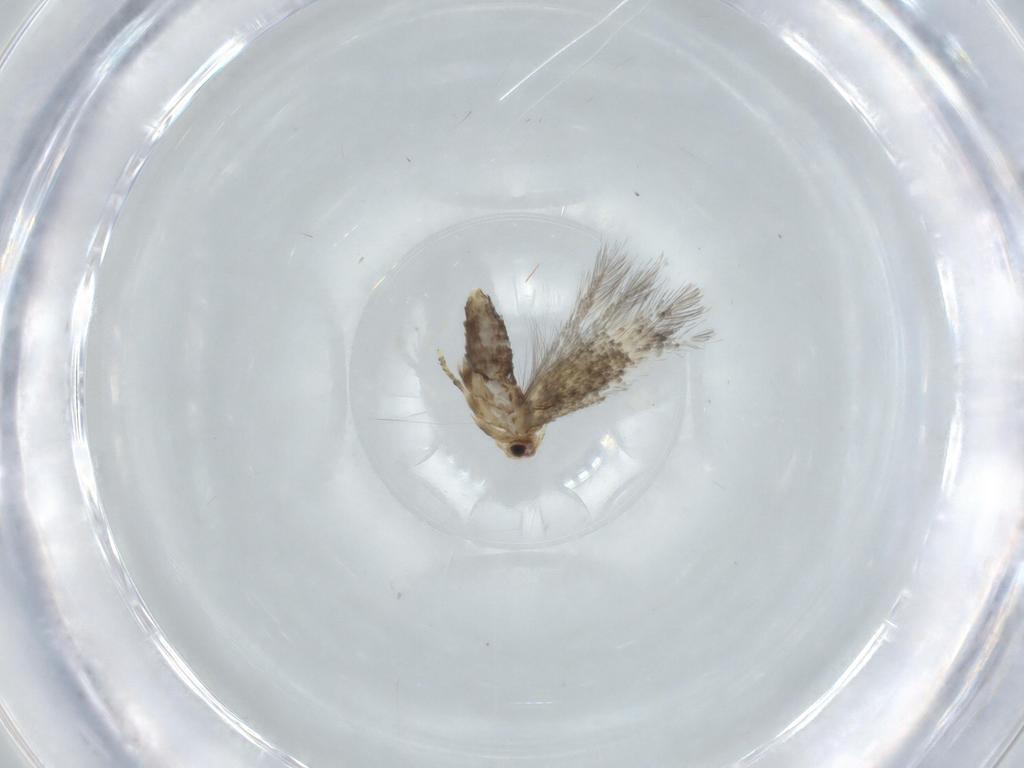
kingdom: Animalia
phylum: Arthropoda
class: Insecta
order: Lepidoptera
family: Nepticulidae
